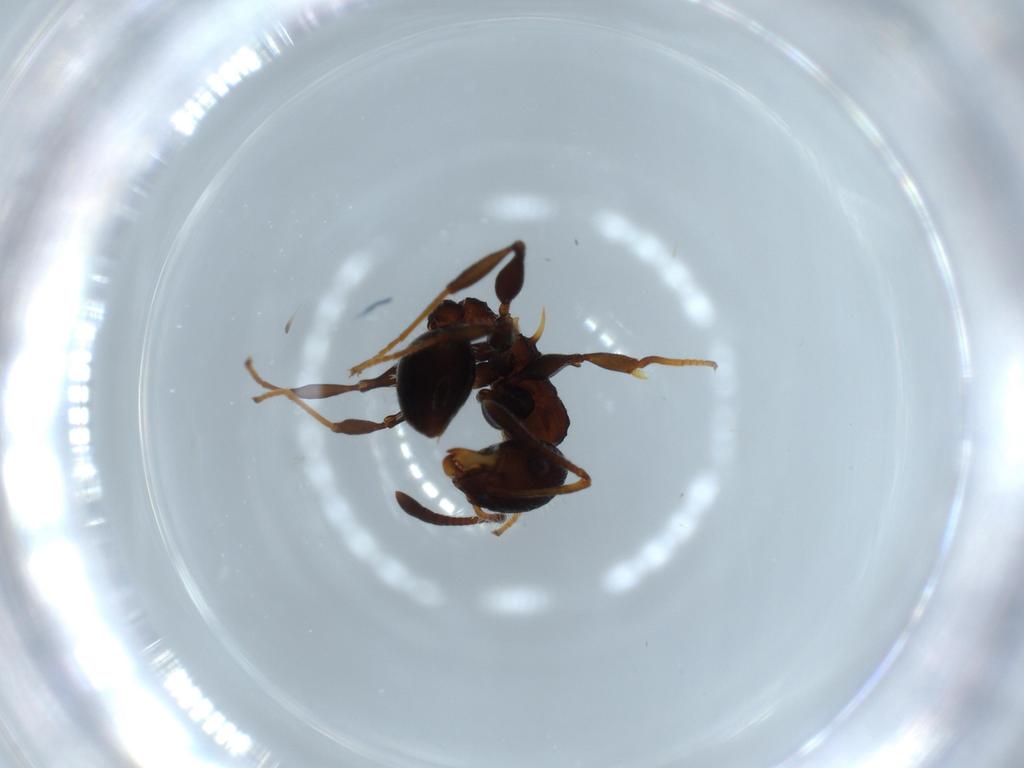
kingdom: Animalia
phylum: Arthropoda
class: Insecta
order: Hymenoptera
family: Formicidae
